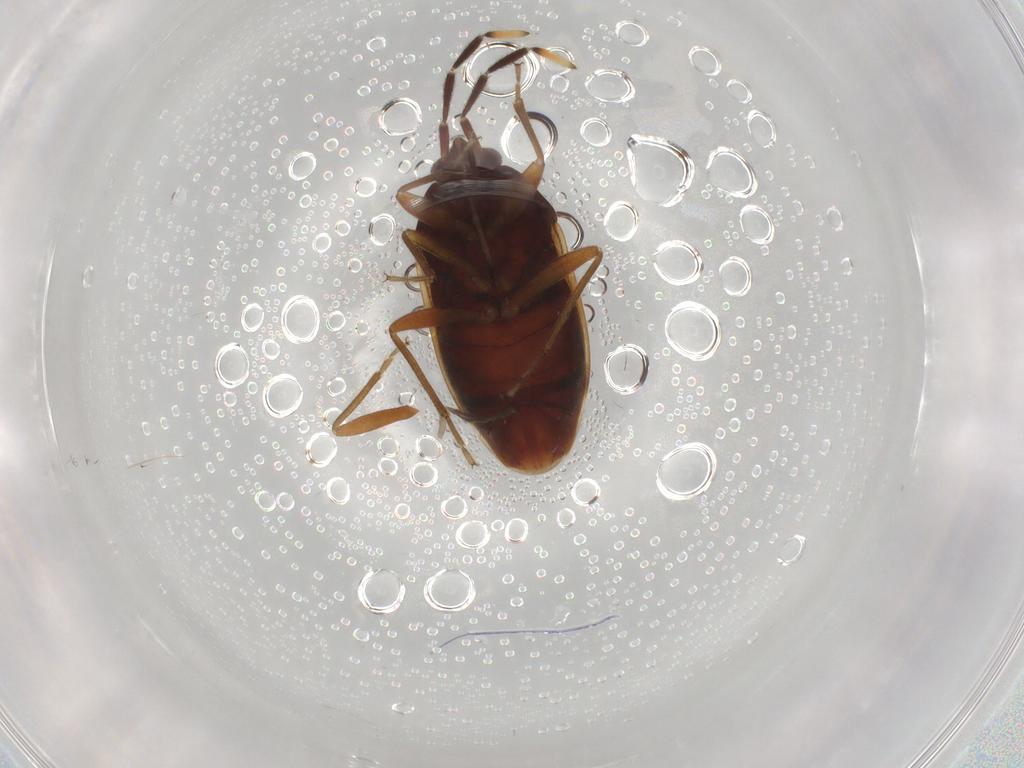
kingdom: Animalia
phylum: Arthropoda
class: Insecta
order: Hemiptera
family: Rhyparochromidae
